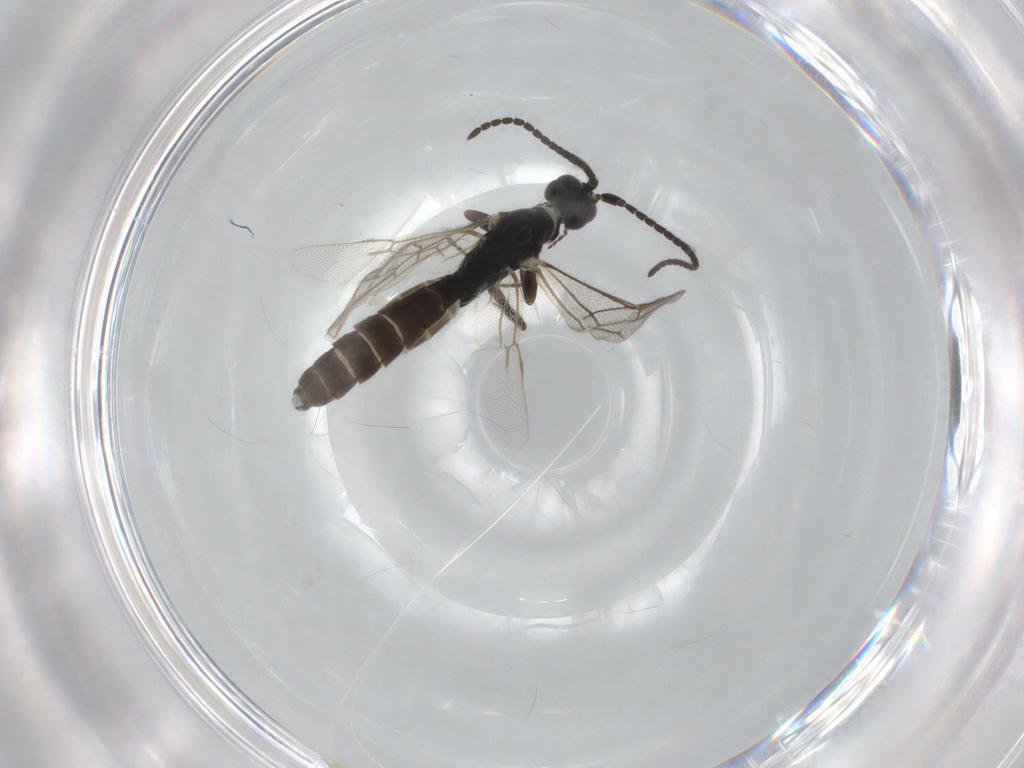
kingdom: Animalia
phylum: Arthropoda
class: Insecta
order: Hymenoptera
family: Ichneumonidae
